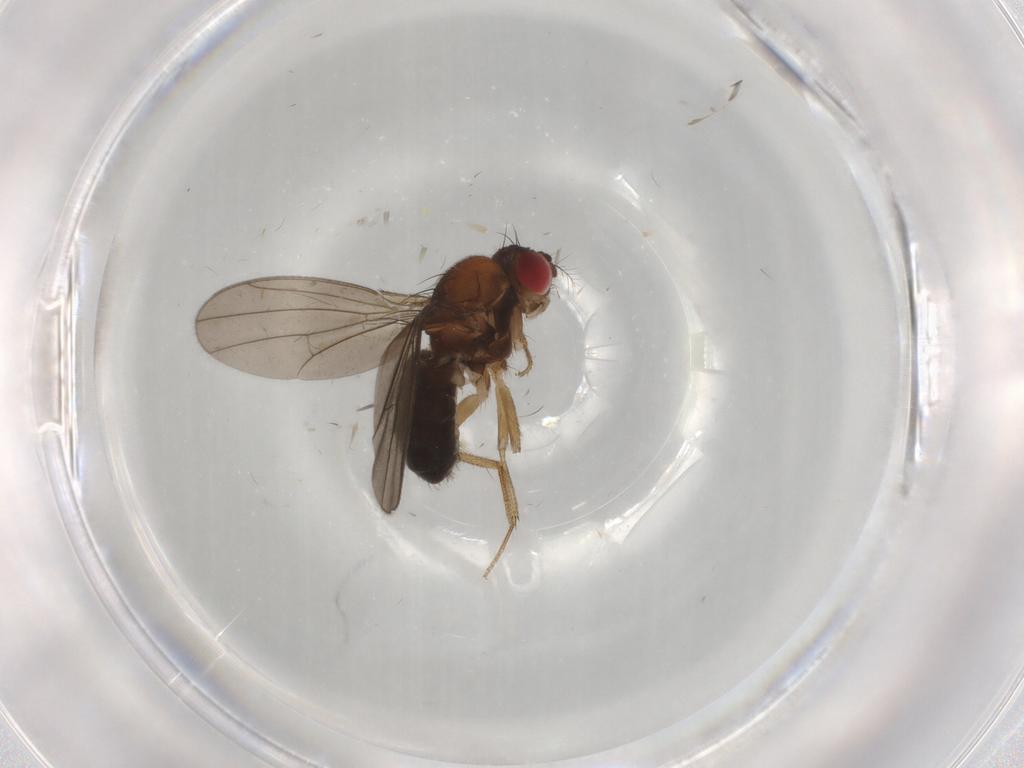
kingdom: Animalia
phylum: Arthropoda
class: Insecta
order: Diptera
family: Drosophilidae
